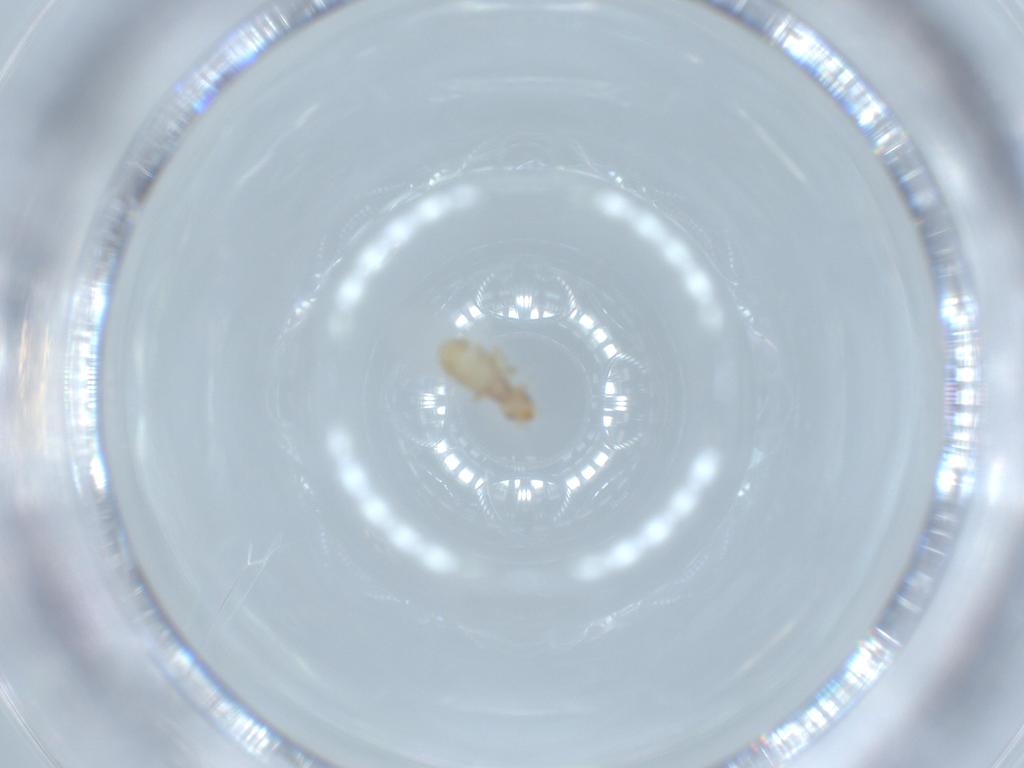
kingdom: Animalia
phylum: Arthropoda
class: Insecta
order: Psocodea
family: Liposcelididae
